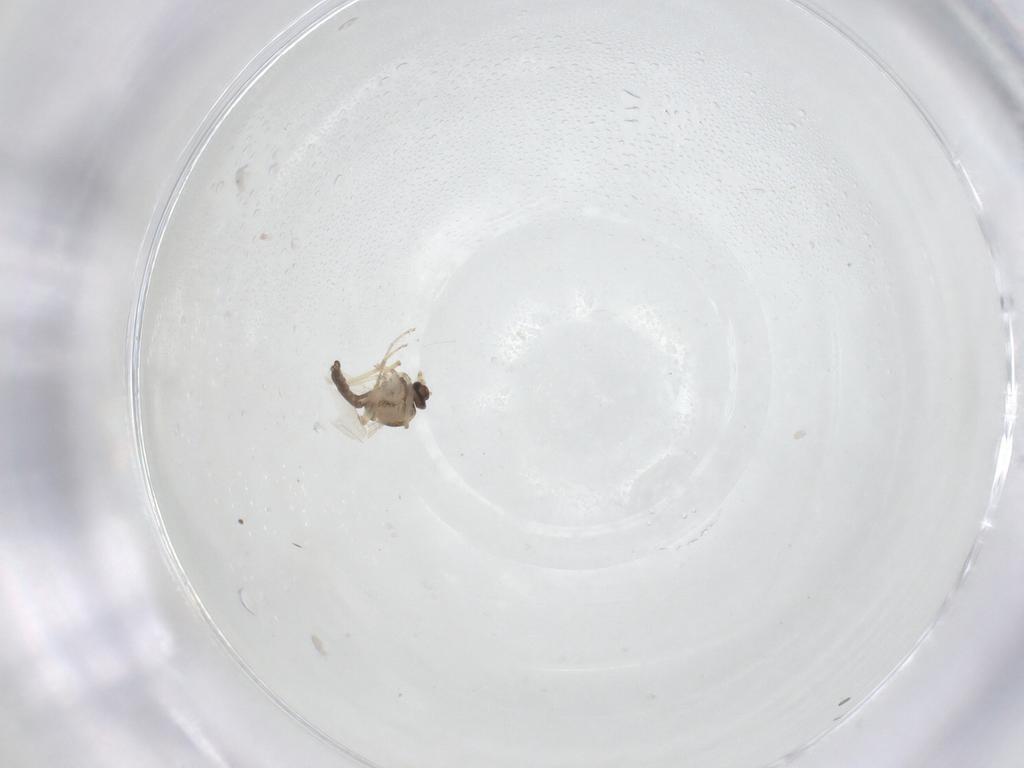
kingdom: Animalia
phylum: Arthropoda
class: Insecta
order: Diptera
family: Ceratopogonidae
